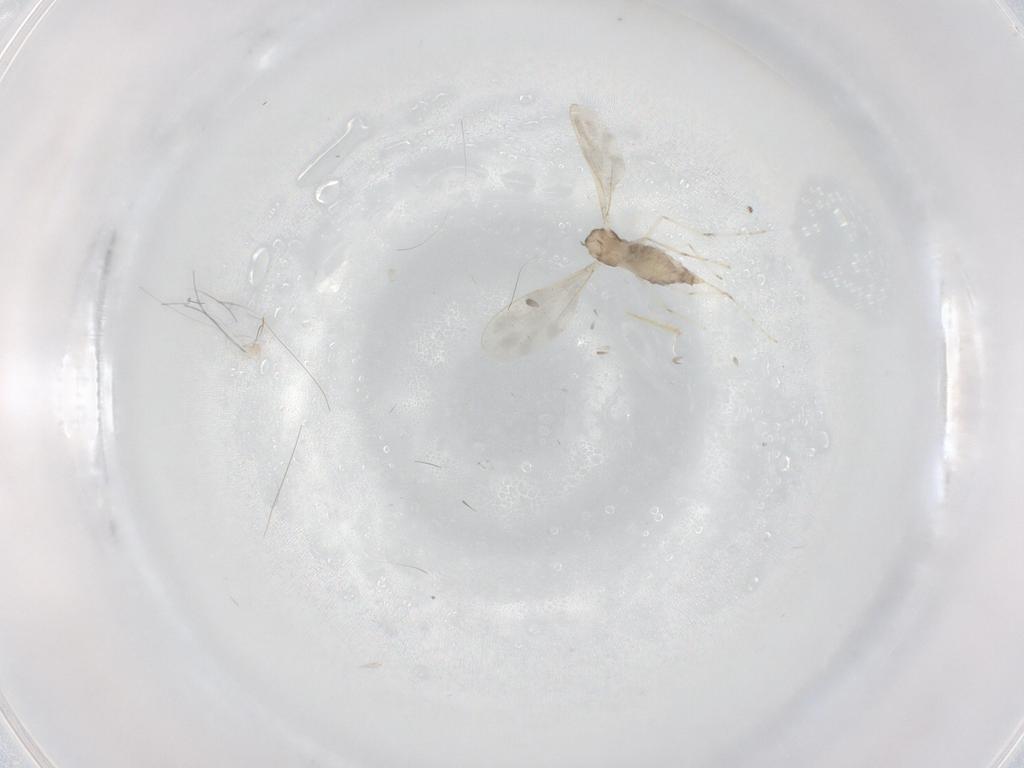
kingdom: Animalia
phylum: Arthropoda
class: Insecta
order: Diptera
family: Cecidomyiidae
